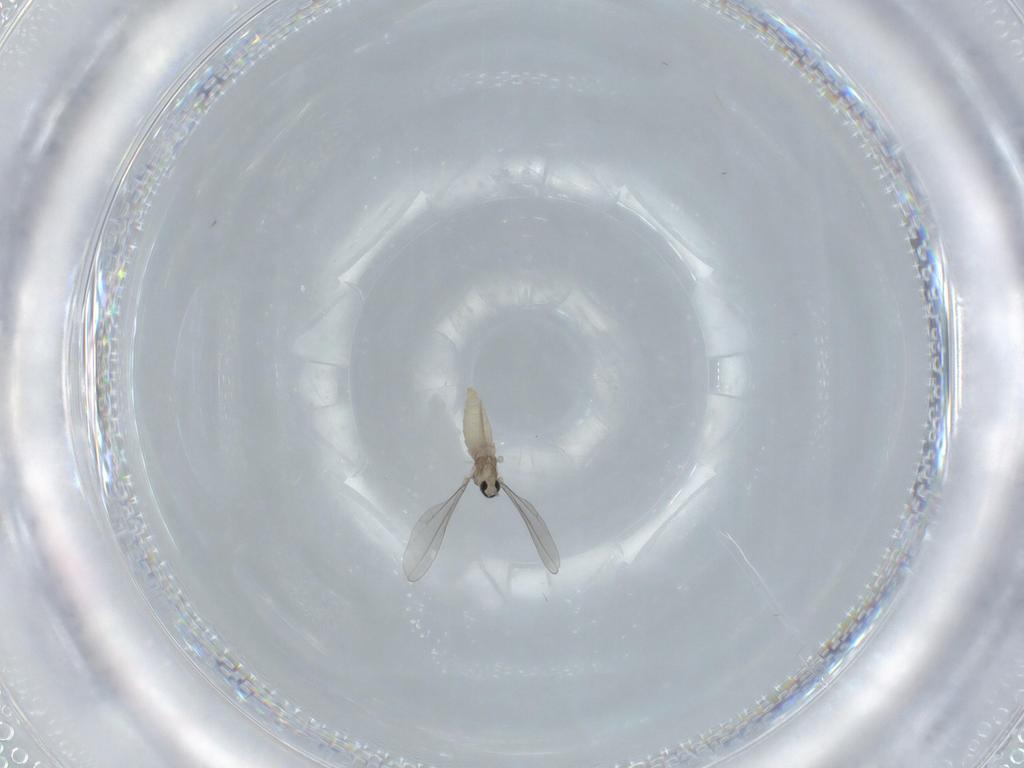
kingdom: Animalia
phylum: Arthropoda
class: Insecta
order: Diptera
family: Cecidomyiidae
